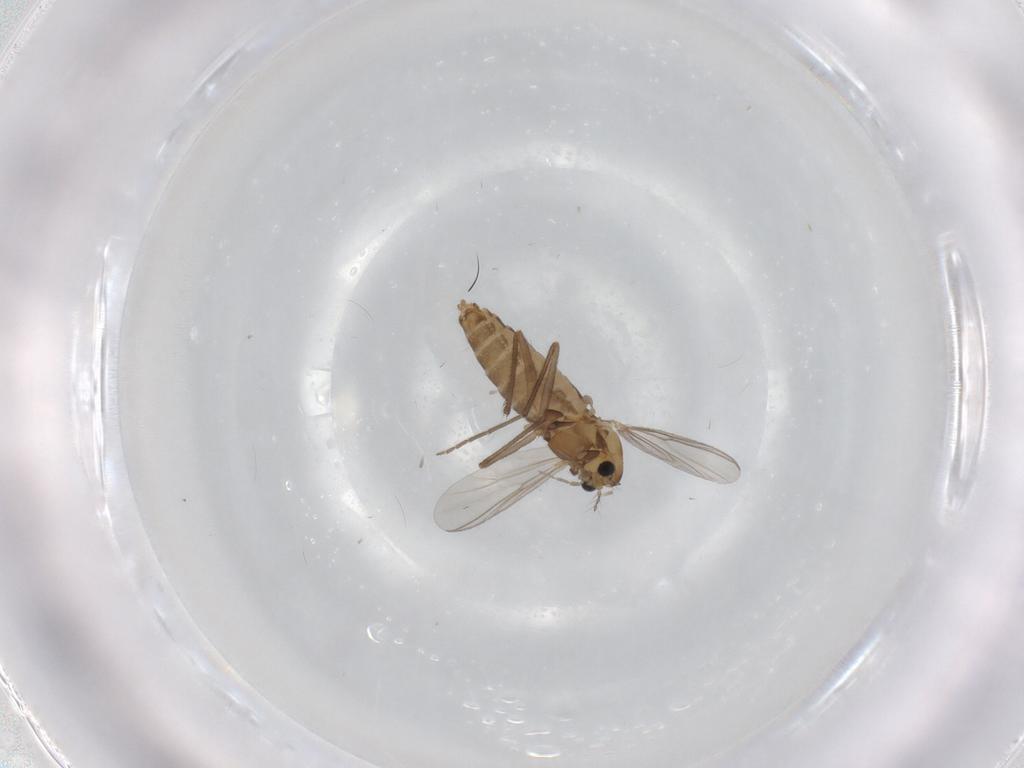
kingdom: Animalia
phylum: Arthropoda
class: Insecta
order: Diptera
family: Chironomidae
